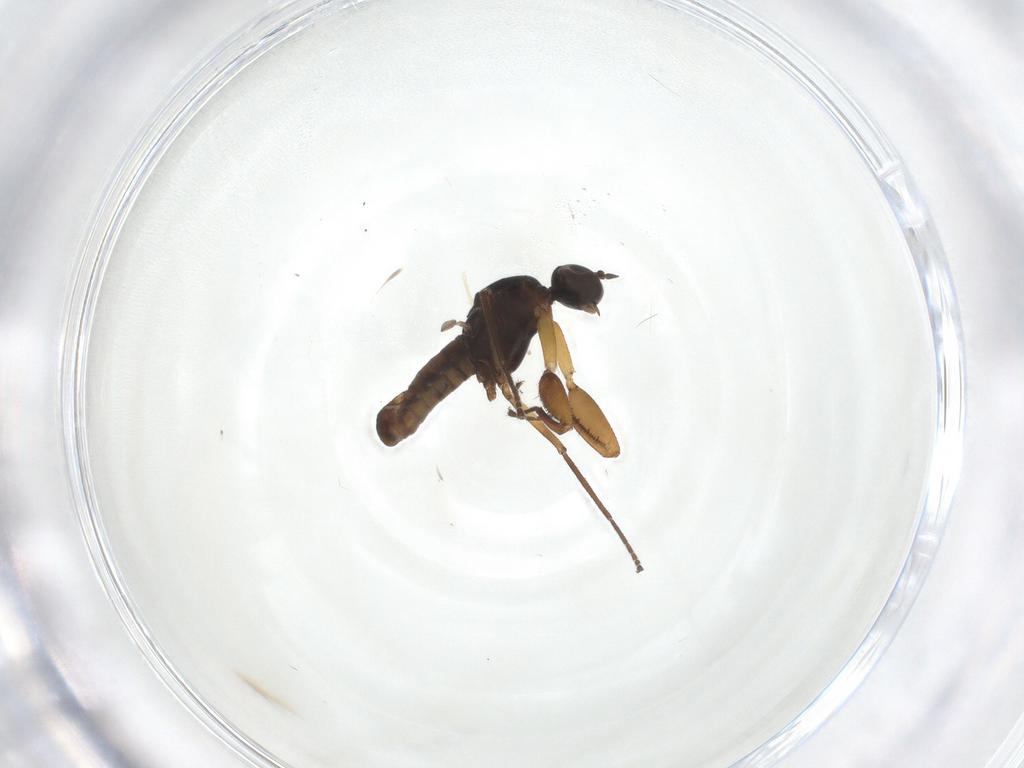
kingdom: Animalia
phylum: Arthropoda
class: Insecta
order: Diptera
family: Empididae
